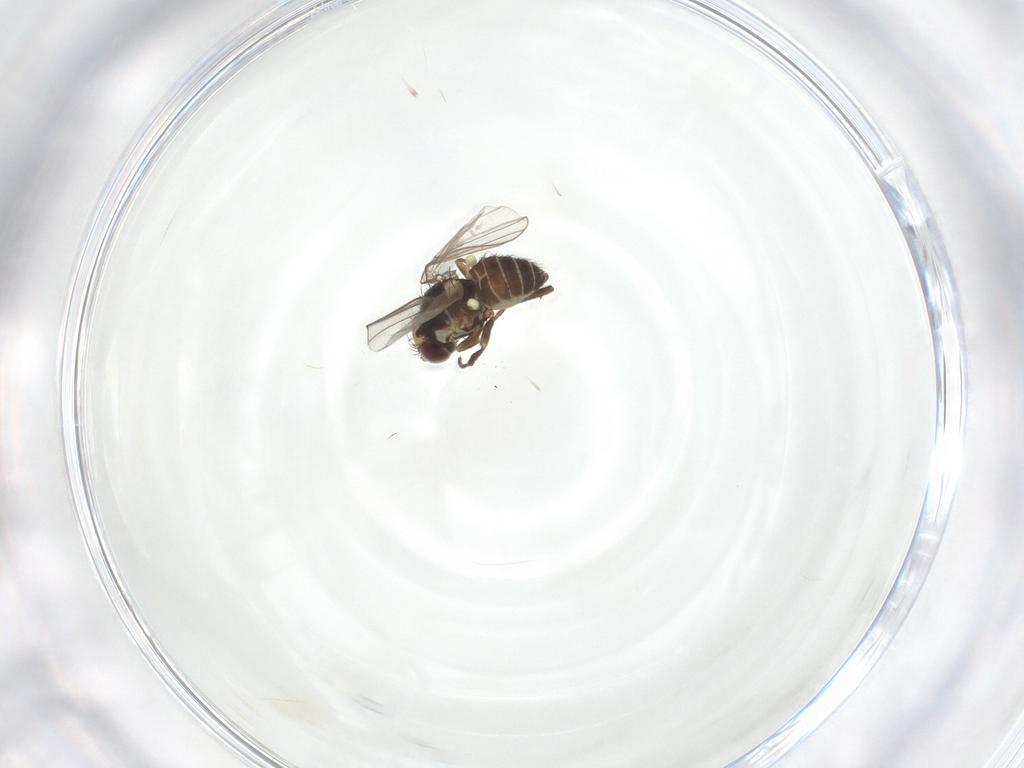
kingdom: Animalia
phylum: Arthropoda
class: Insecta
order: Diptera
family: Agromyzidae
